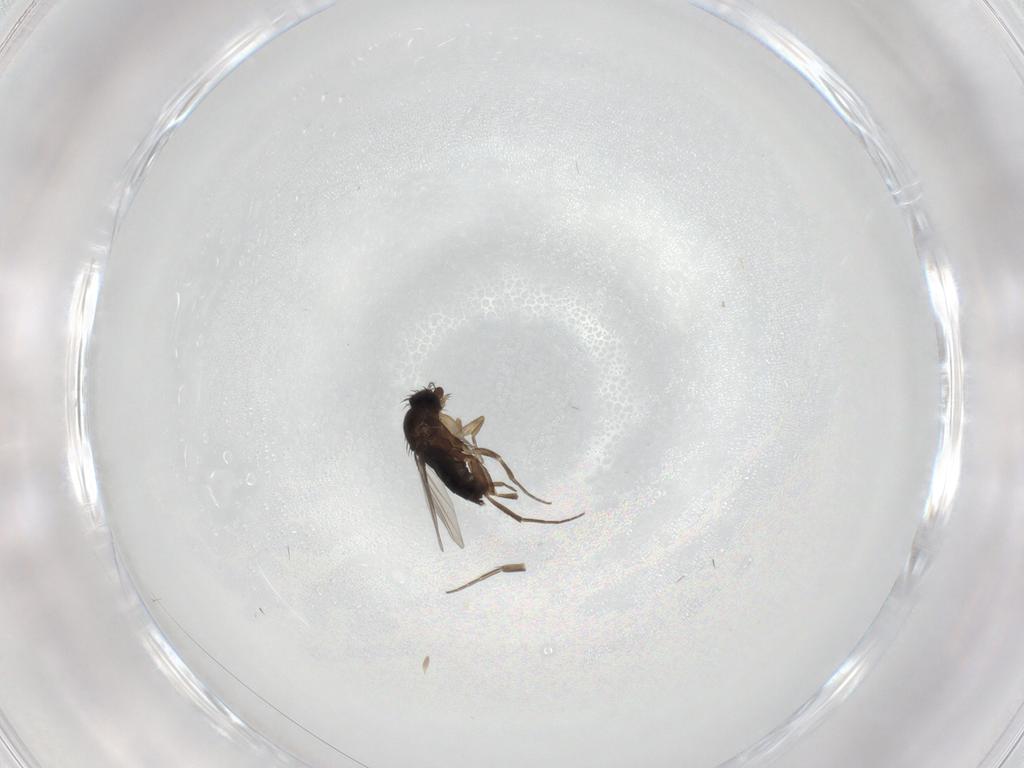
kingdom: Animalia
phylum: Arthropoda
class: Insecta
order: Diptera
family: Phoridae
